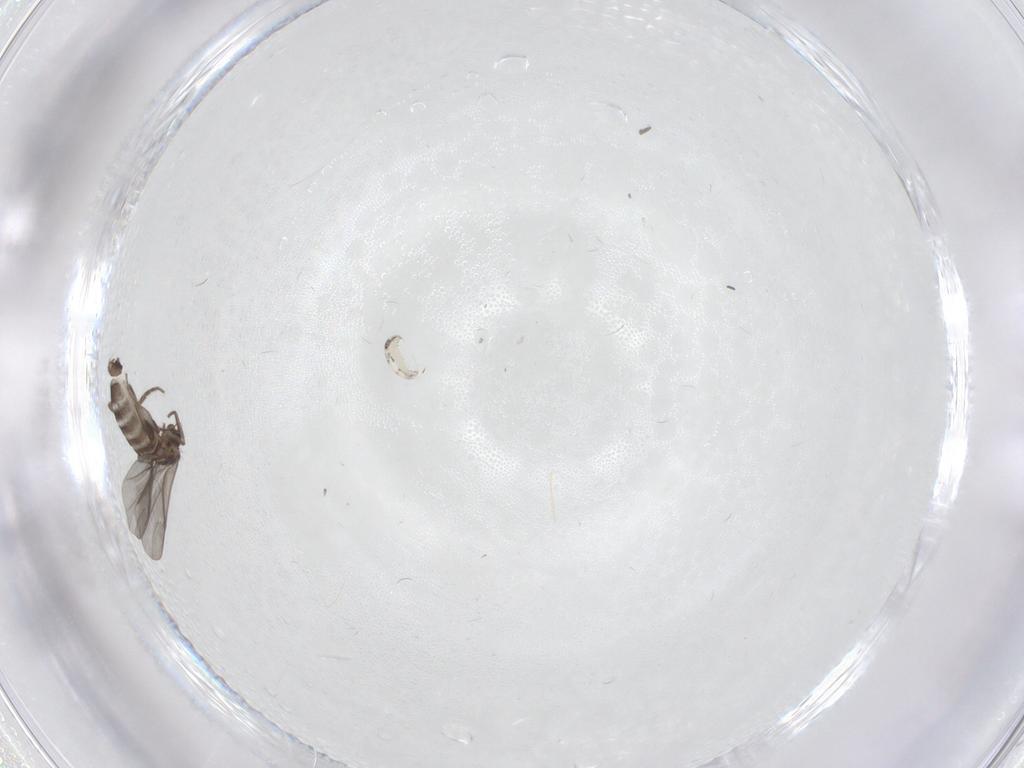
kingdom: Animalia
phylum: Arthropoda
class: Insecta
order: Diptera
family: Phoridae
